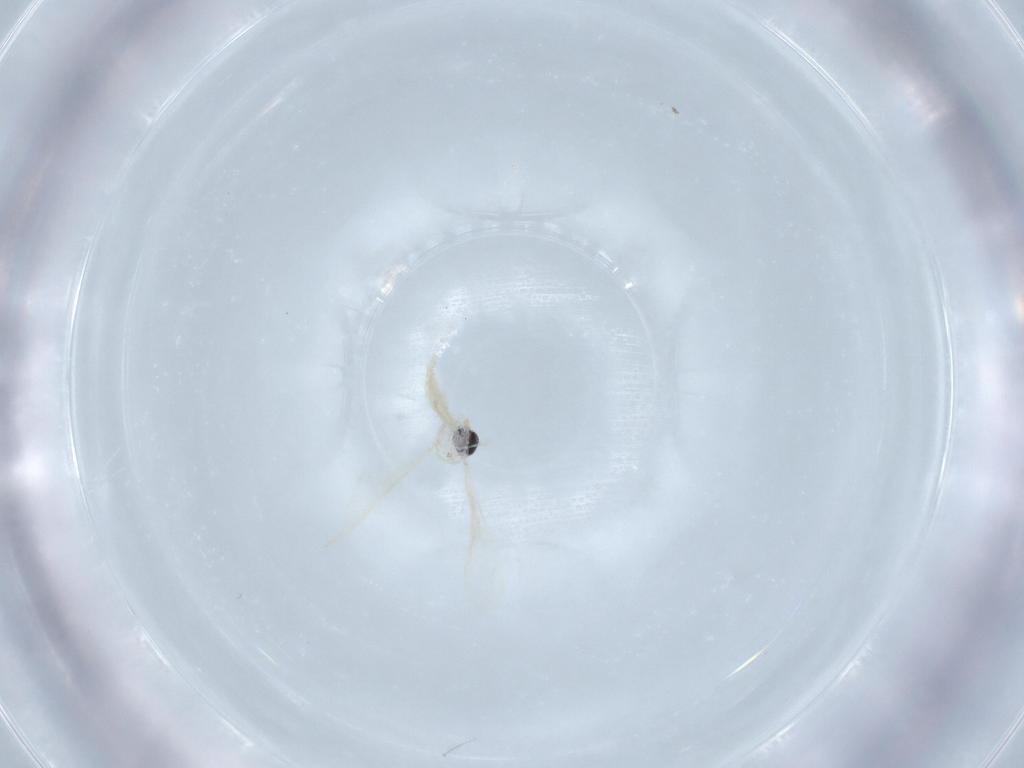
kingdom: Animalia
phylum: Arthropoda
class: Insecta
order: Diptera
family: Cecidomyiidae
